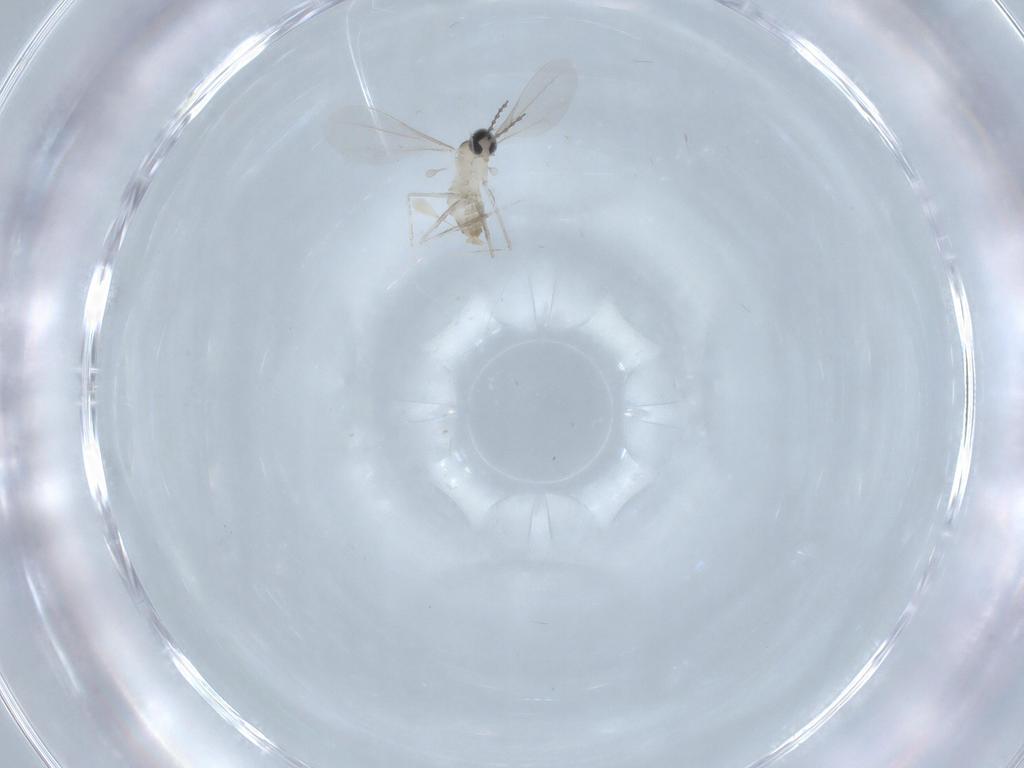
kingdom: Animalia
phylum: Arthropoda
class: Insecta
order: Diptera
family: Cecidomyiidae
